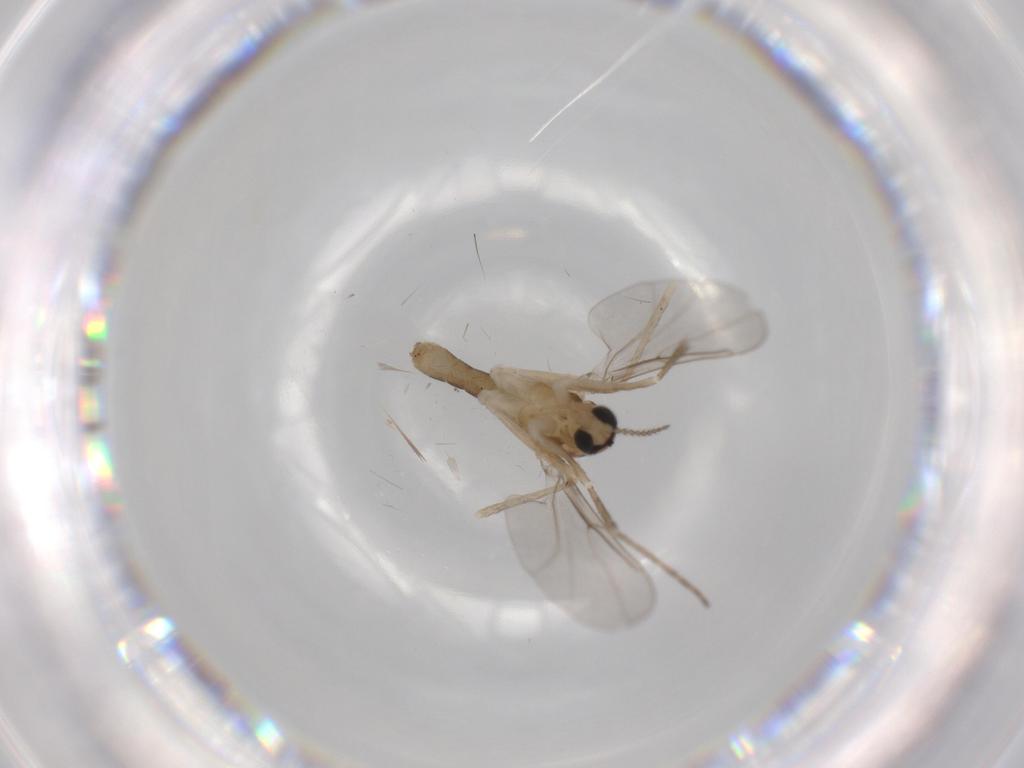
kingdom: Animalia
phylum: Arthropoda
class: Insecta
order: Diptera
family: Cecidomyiidae
